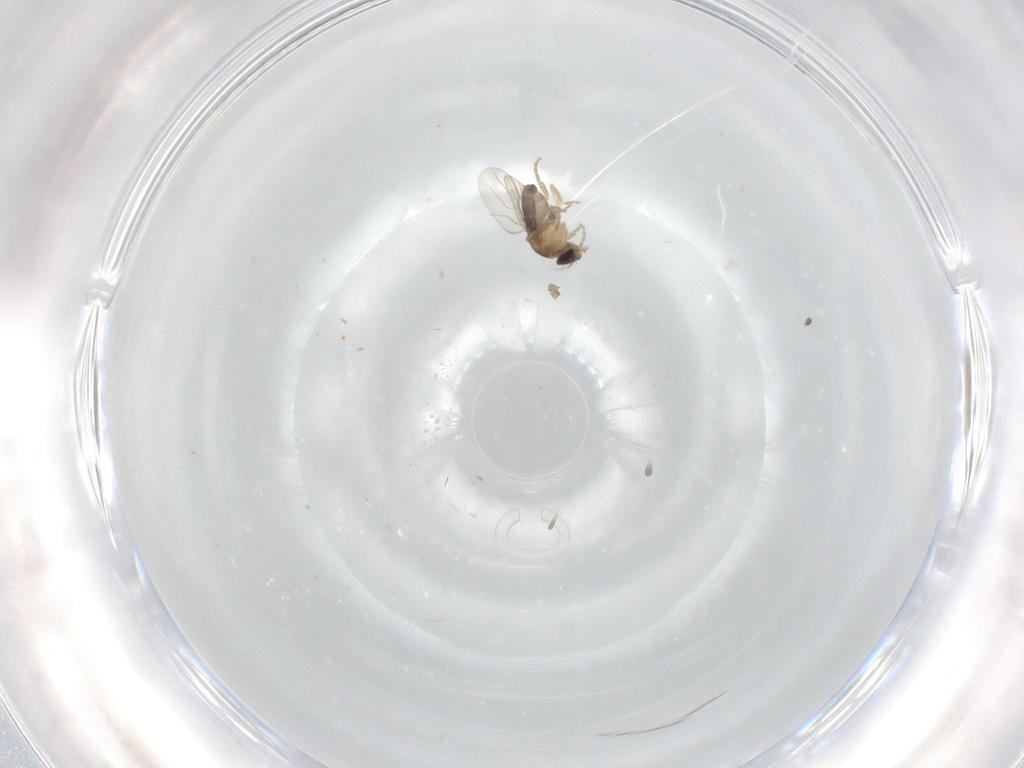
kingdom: Animalia
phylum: Arthropoda
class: Insecta
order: Diptera
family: Phoridae
